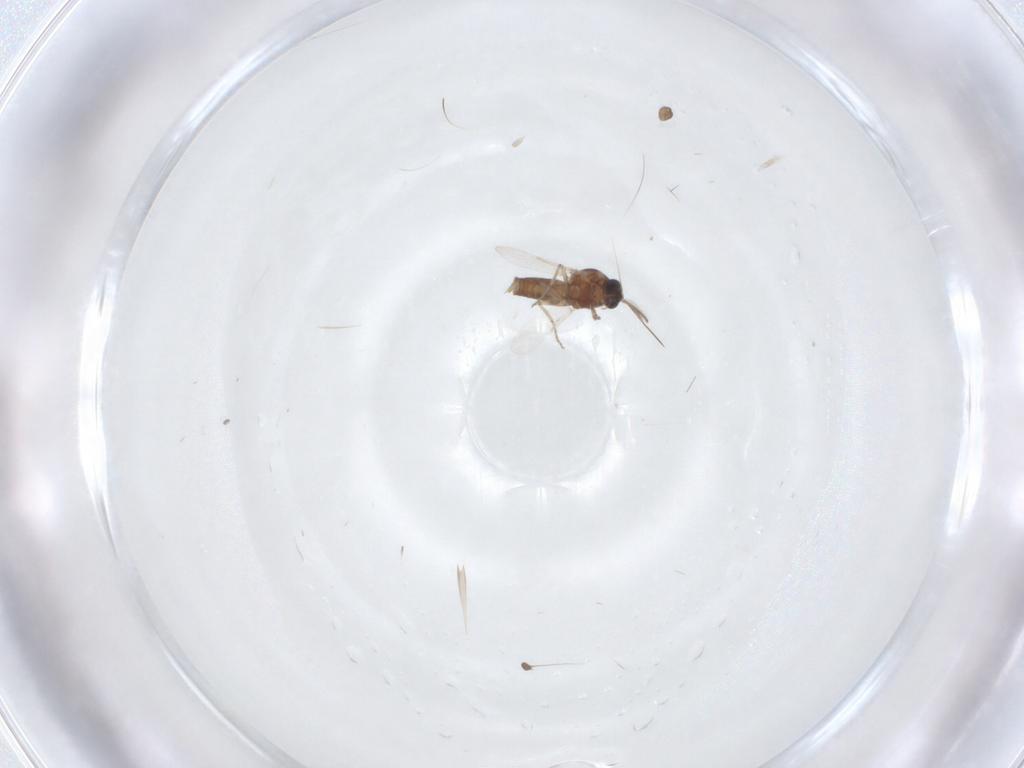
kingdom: Animalia
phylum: Arthropoda
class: Insecta
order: Diptera
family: Ceratopogonidae
